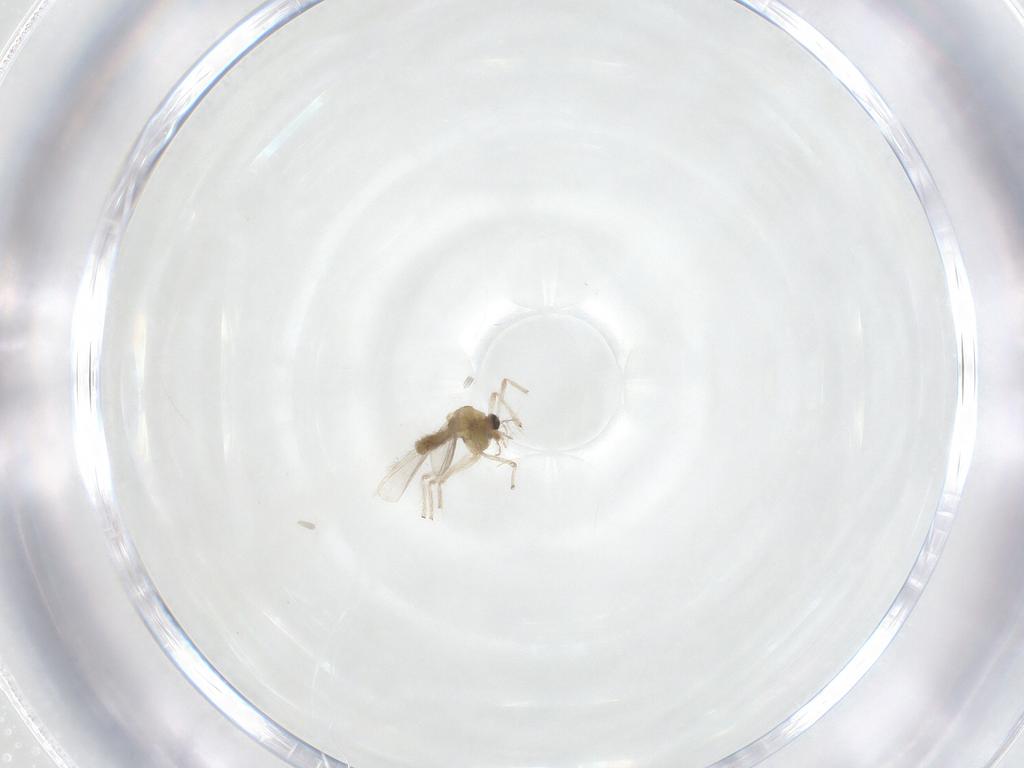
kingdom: Animalia
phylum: Arthropoda
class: Insecta
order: Diptera
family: Chironomidae
